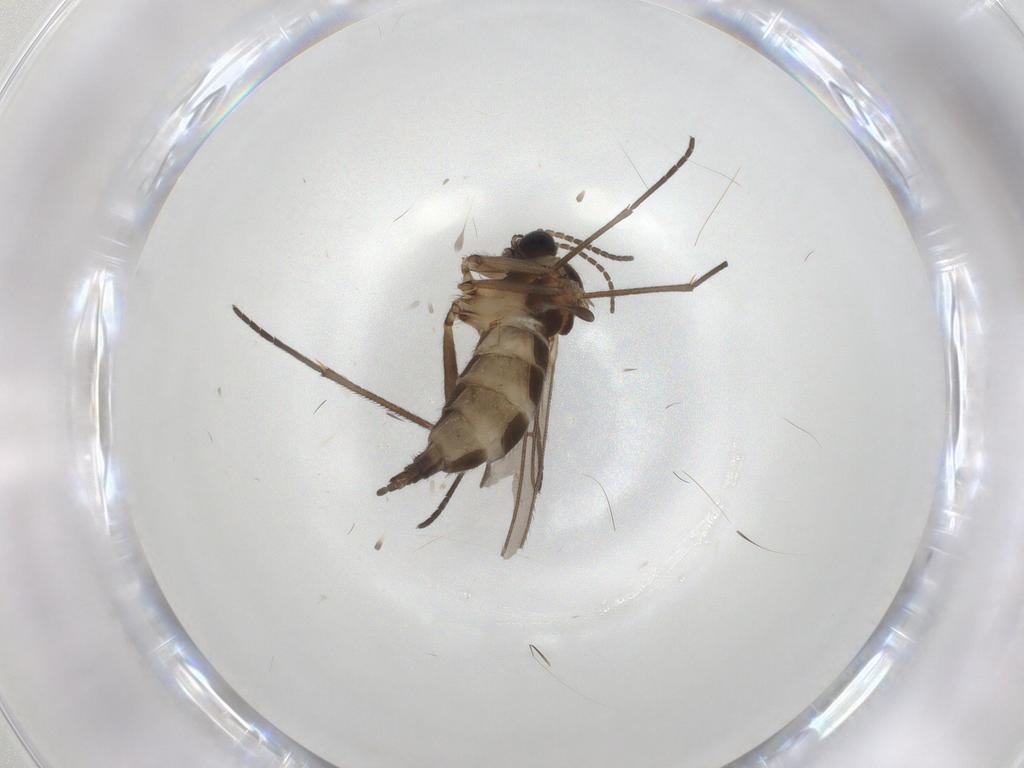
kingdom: Animalia
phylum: Arthropoda
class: Insecta
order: Diptera
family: Sciaridae
